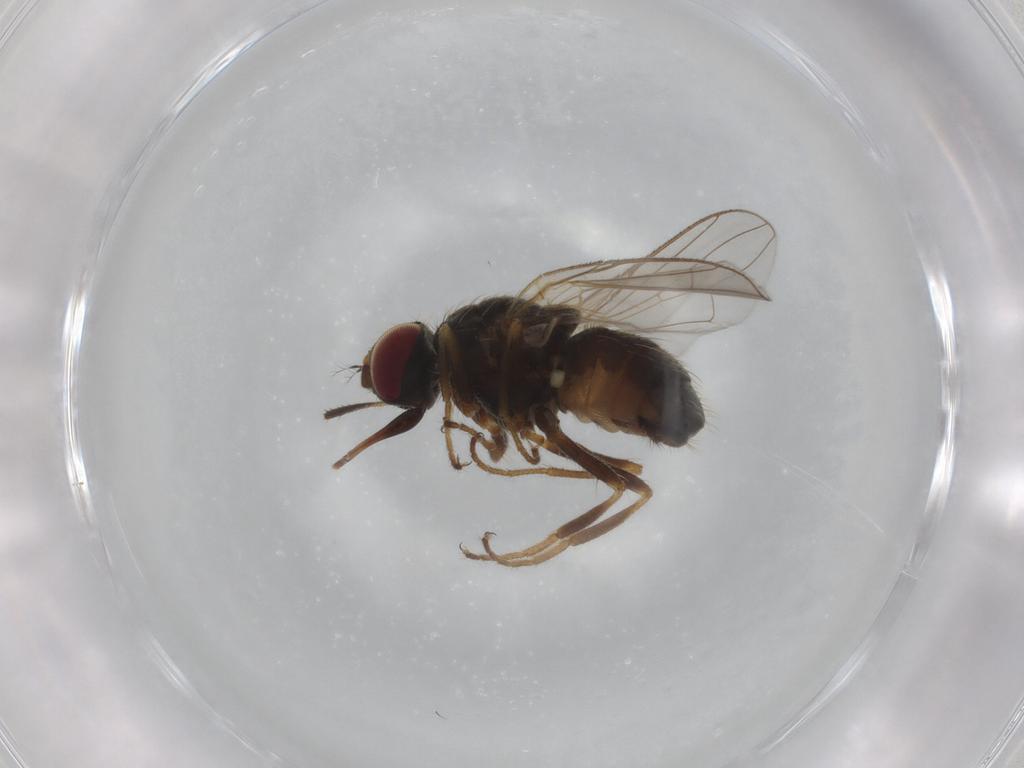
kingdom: Animalia
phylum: Arthropoda
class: Insecta
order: Diptera
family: Muscidae
